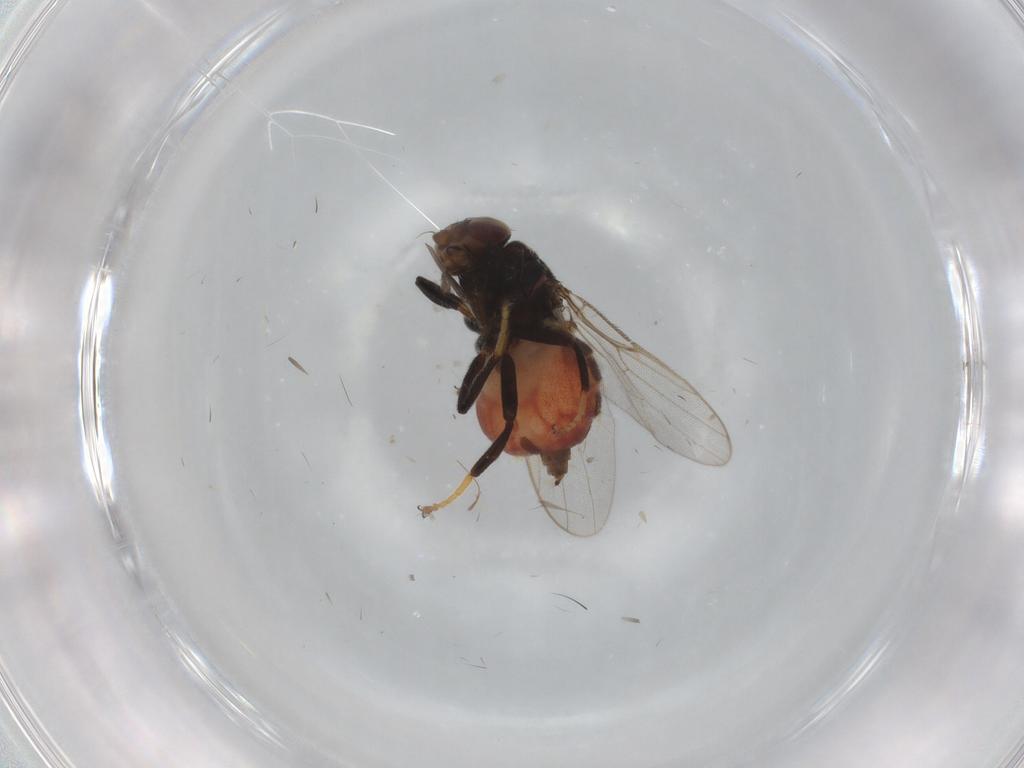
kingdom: Animalia
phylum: Arthropoda
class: Insecta
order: Diptera
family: Chloropidae
